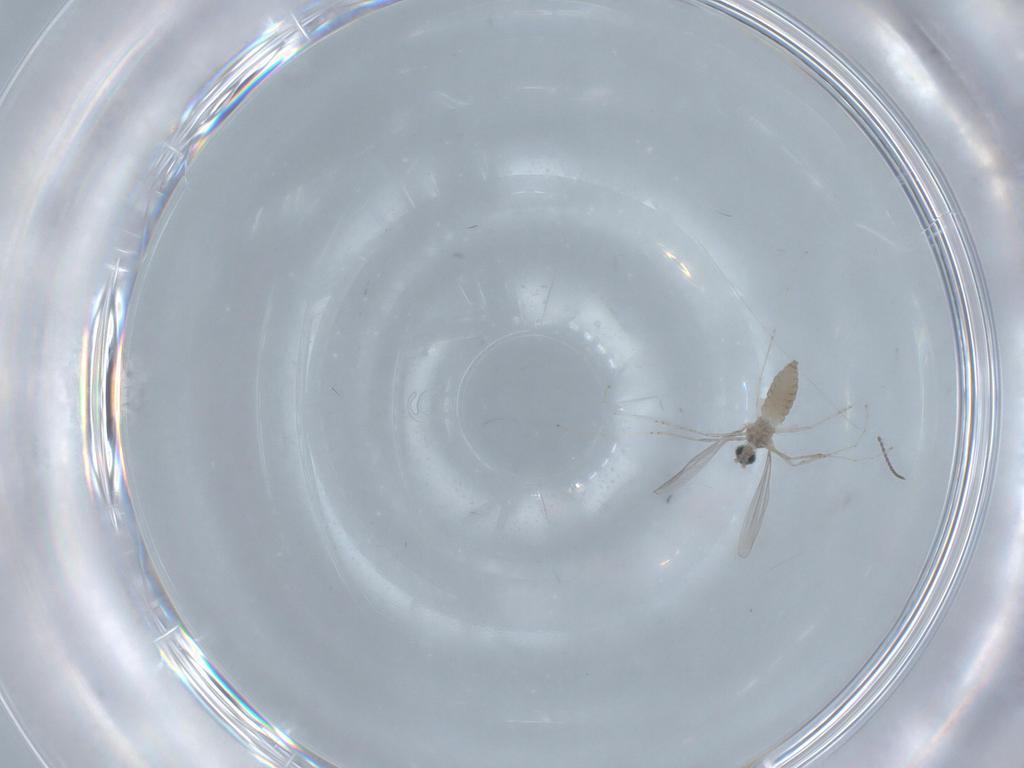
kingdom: Animalia
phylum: Arthropoda
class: Insecta
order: Diptera
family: Cecidomyiidae
